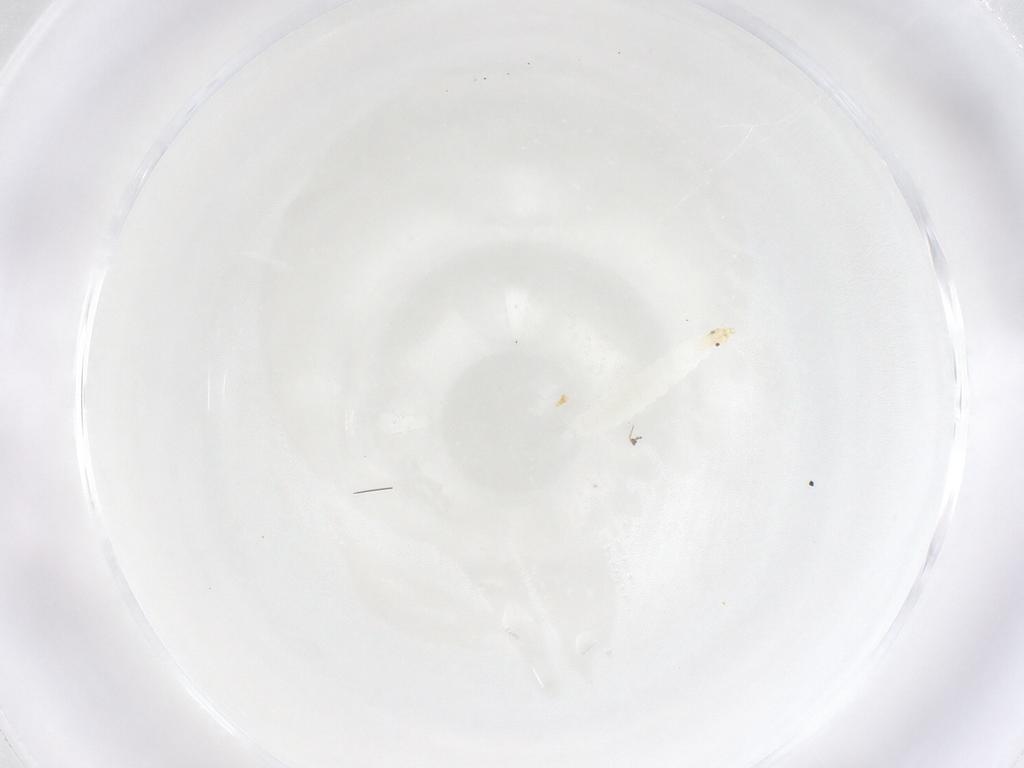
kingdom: Animalia
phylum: Arthropoda
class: Insecta
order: Diptera
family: Stratiomyidae
